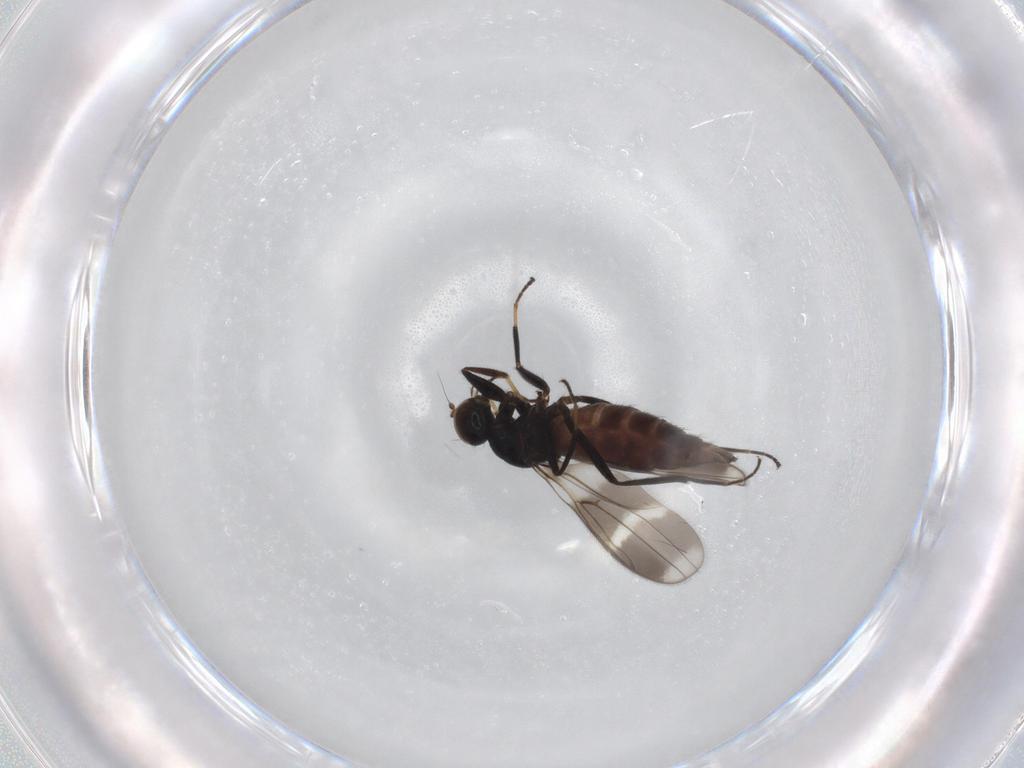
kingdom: Animalia
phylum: Arthropoda
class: Insecta
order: Diptera
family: Hybotidae
